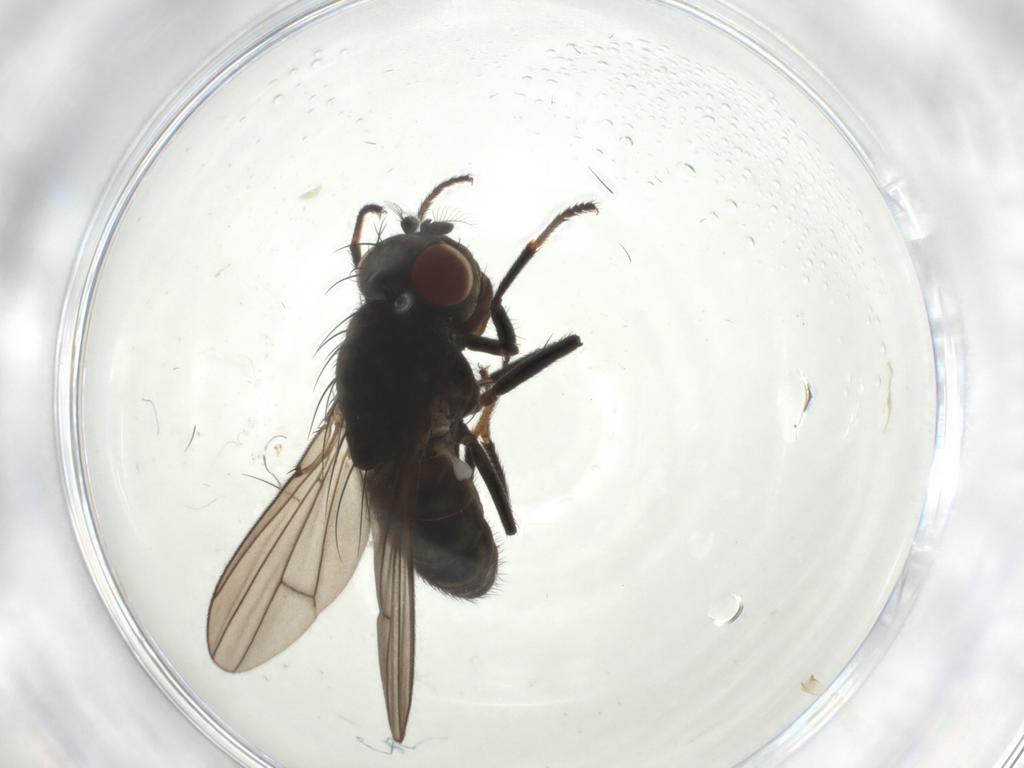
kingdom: Animalia
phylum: Arthropoda
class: Insecta
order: Diptera
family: Ephydridae
